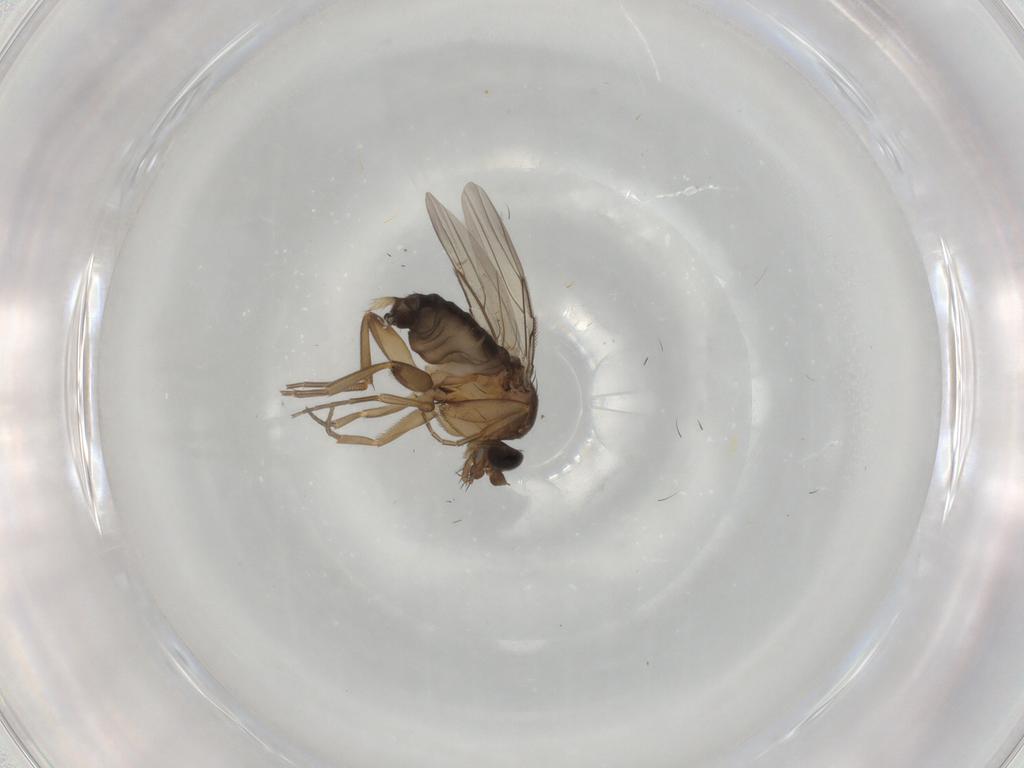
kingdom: Animalia
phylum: Arthropoda
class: Insecta
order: Diptera
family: Phoridae
